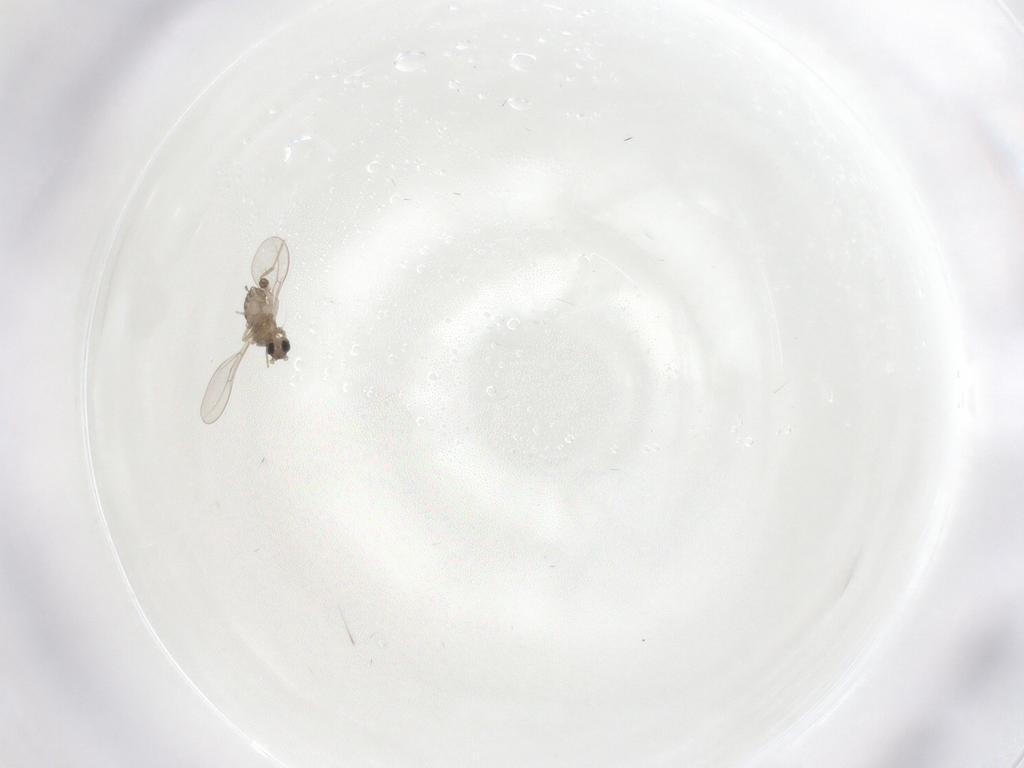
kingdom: Animalia
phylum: Arthropoda
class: Insecta
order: Diptera
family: Cecidomyiidae
